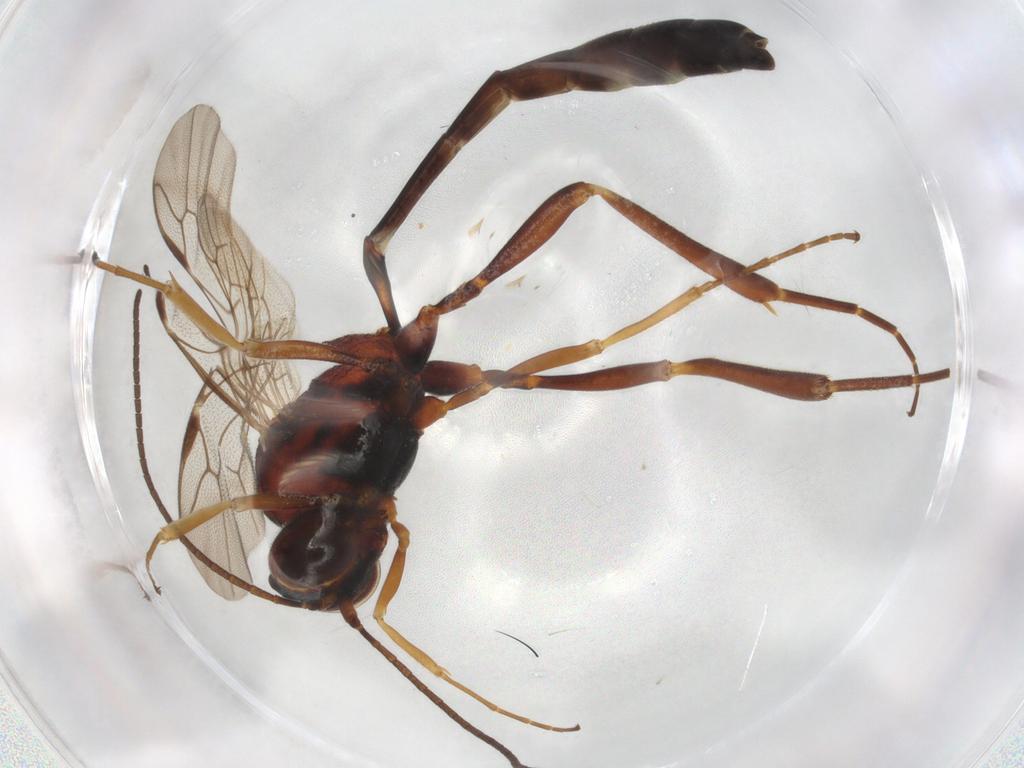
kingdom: Animalia
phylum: Arthropoda
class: Insecta
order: Hymenoptera
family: Ichneumonidae
